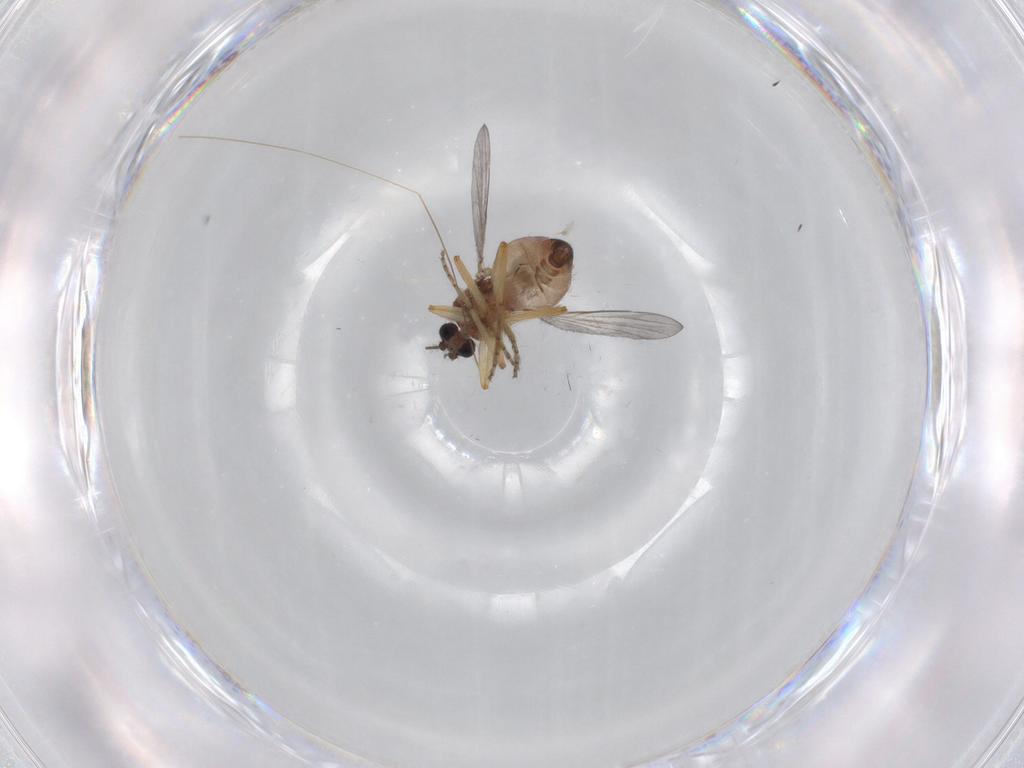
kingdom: Animalia
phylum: Arthropoda
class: Insecta
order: Diptera
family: Ceratopogonidae
